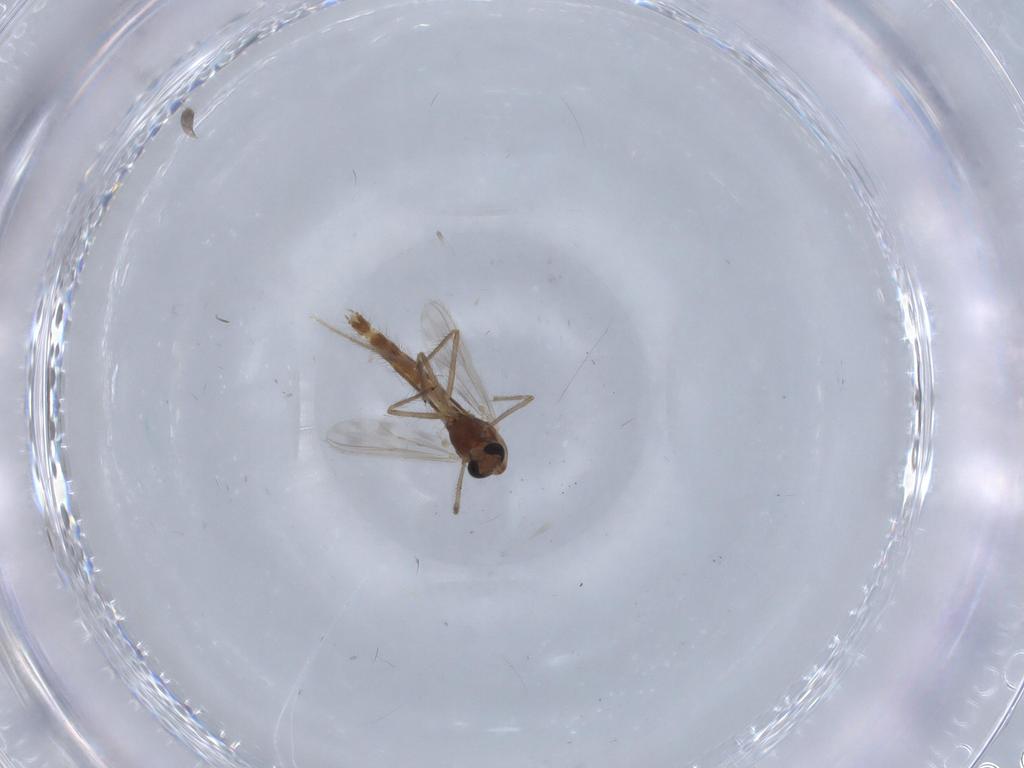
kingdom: Animalia
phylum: Arthropoda
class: Insecta
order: Diptera
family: Chironomidae
